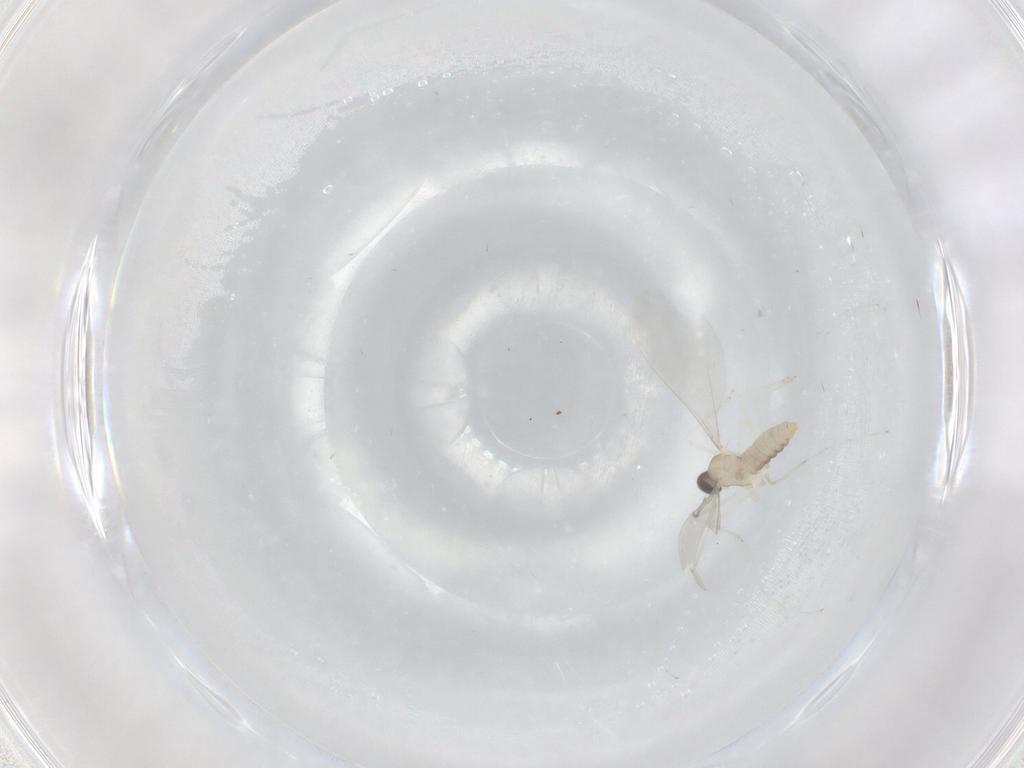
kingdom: Animalia
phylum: Arthropoda
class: Insecta
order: Diptera
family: Cecidomyiidae
